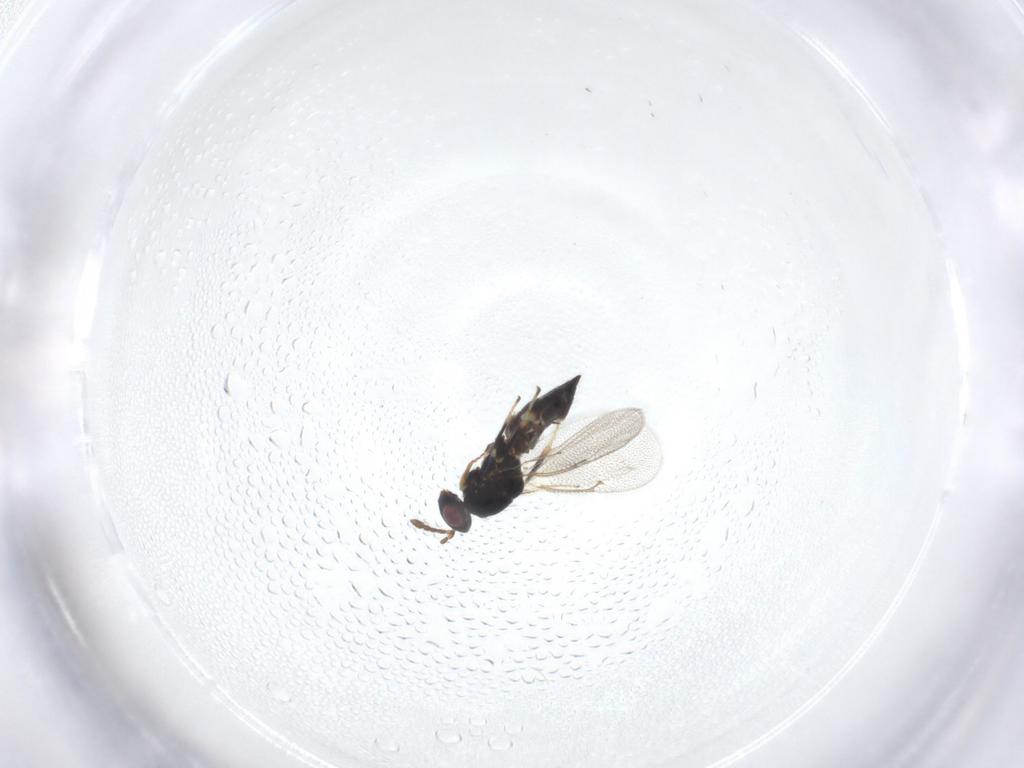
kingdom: Animalia
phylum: Arthropoda
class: Insecta
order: Hymenoptera
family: Eulophidae
